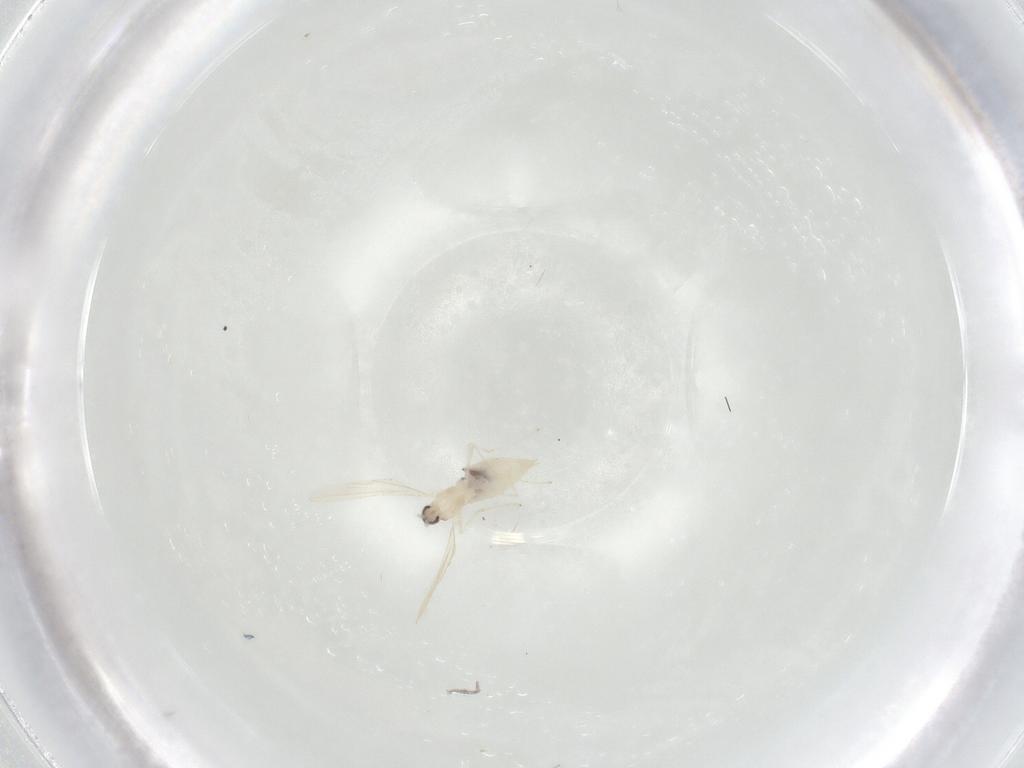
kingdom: Animalia
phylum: Arthropoda
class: Insecta
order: Diptera
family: Cecidomyiidae
